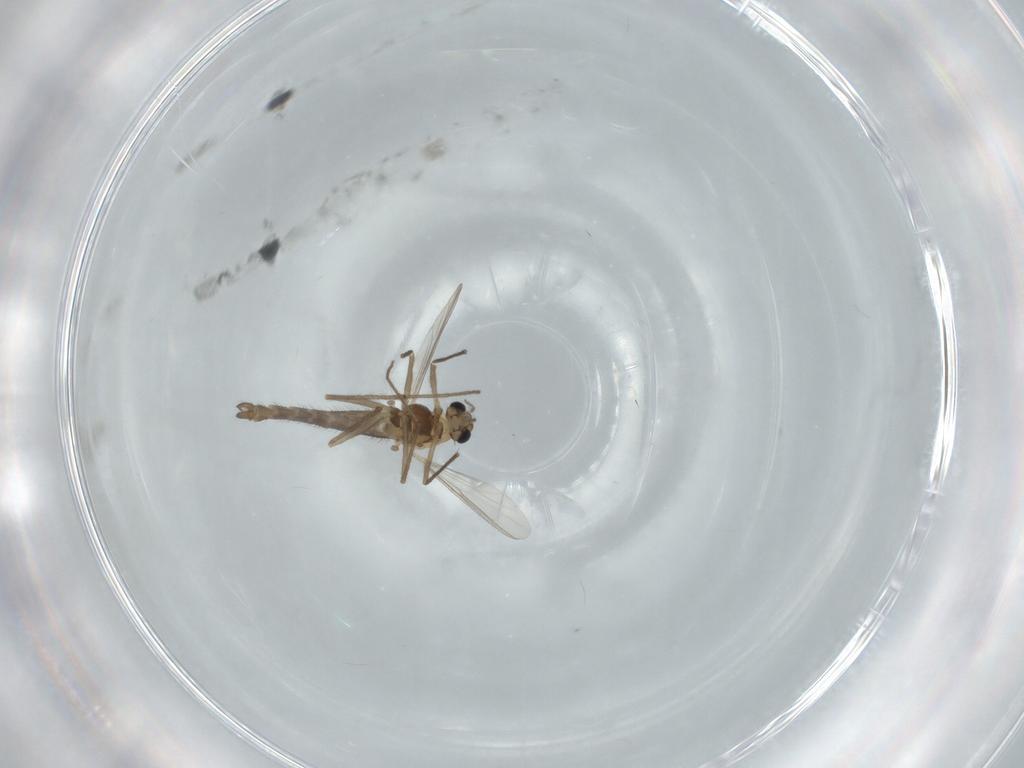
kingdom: Animalia
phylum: Arthropoda
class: Insecta
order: Diptera
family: Chironomidae
